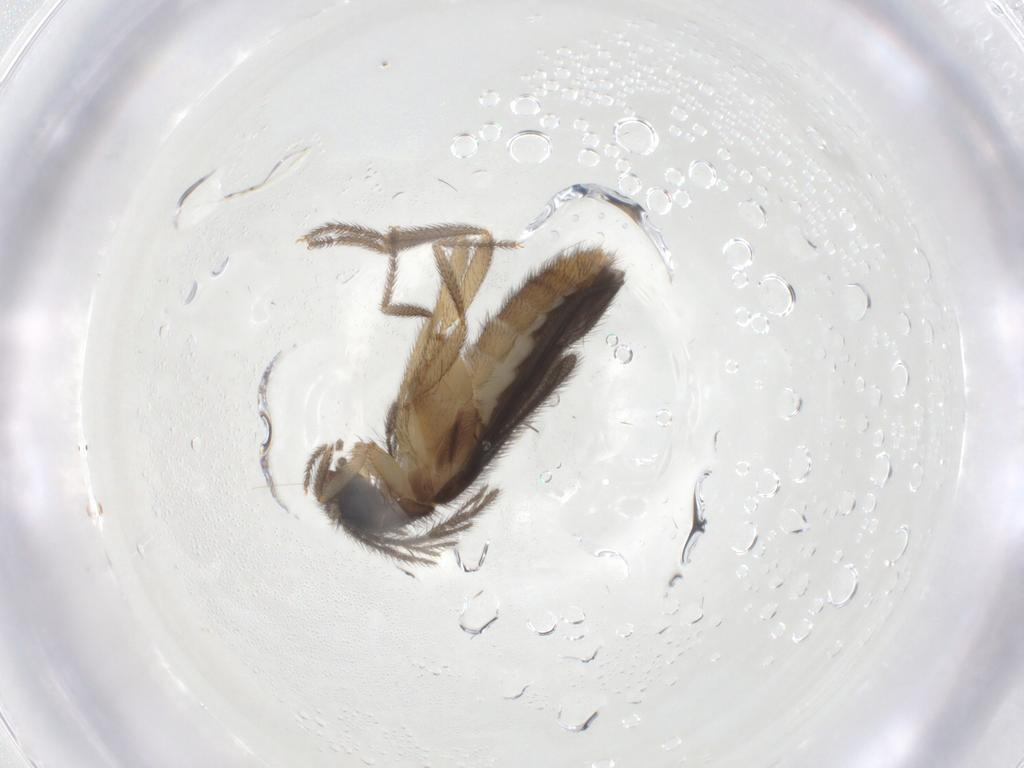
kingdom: Animalia
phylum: Arthropoda
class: Insecta
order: Coleoptera
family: Phengodidae
